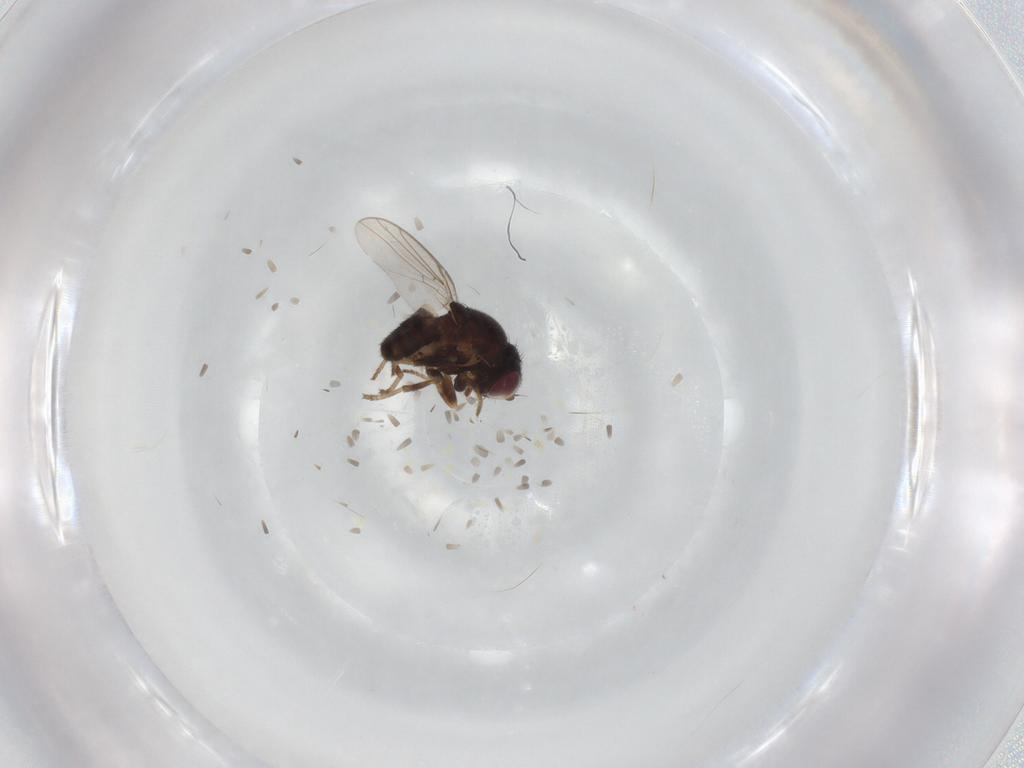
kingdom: Animalia
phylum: Arthropoda
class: Insecta
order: Diptera
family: Chloropidae
